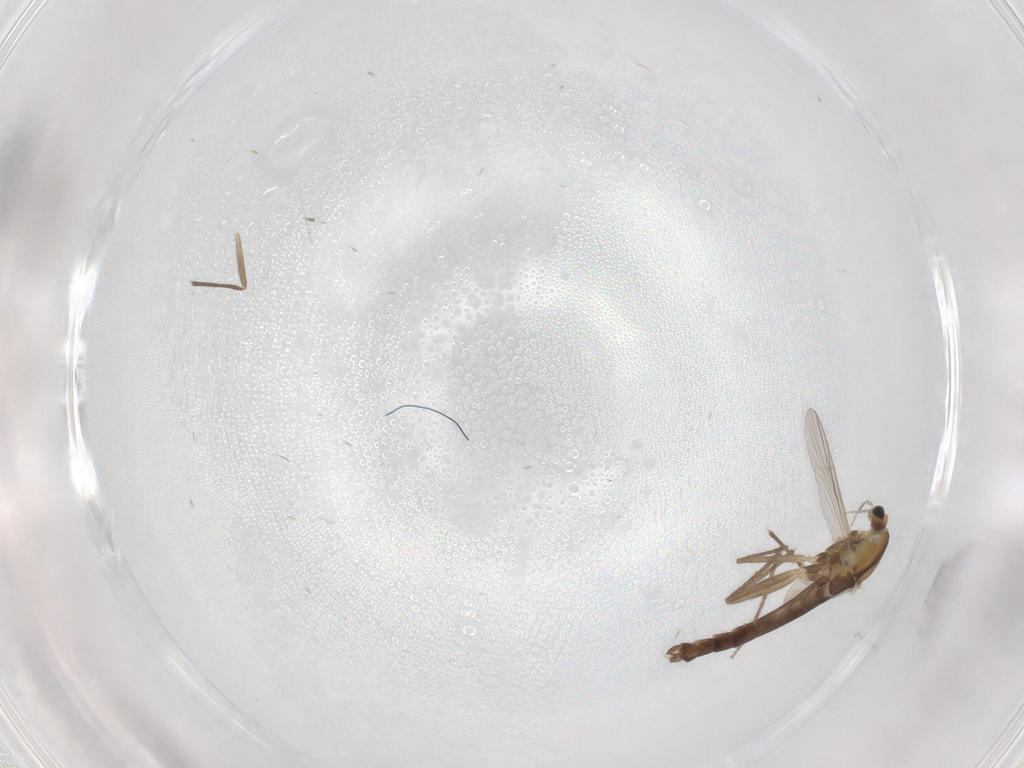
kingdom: Animalia
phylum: Arthropoda
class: Insecta
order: Diptera
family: Chironomidae
